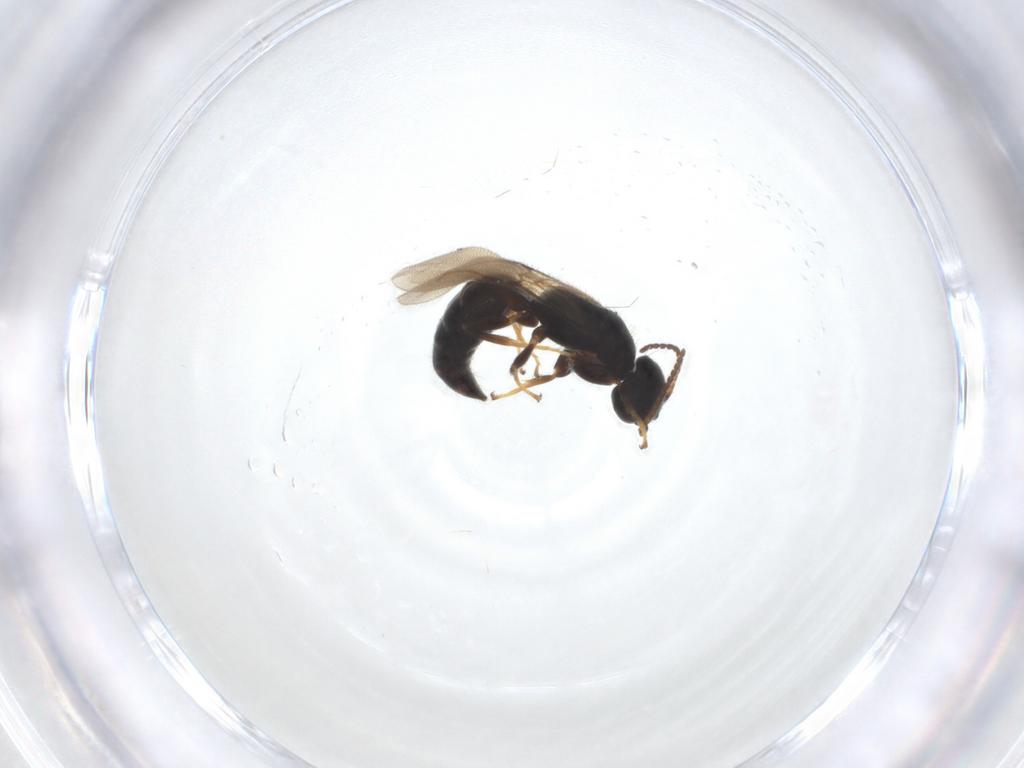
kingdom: Animalia
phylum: Arthropoda
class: Insecta
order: Hymenoptera
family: Bethylidae
